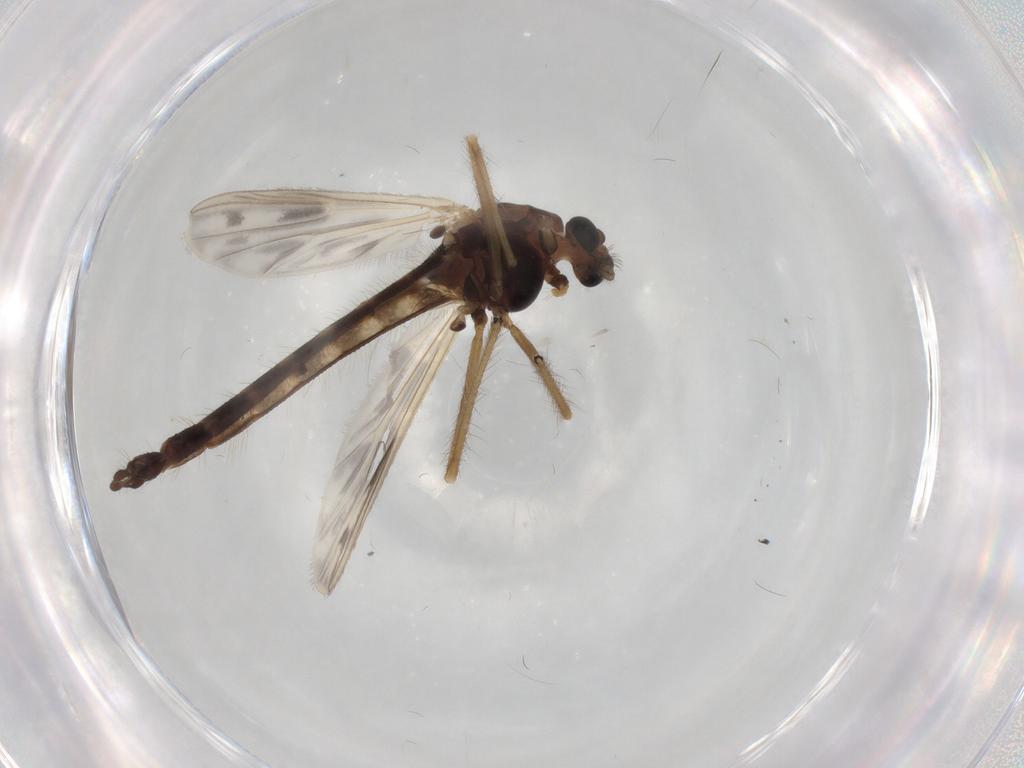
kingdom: Animalia
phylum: Arthropoda
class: Insecta
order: Diptera
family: Chironomidae
